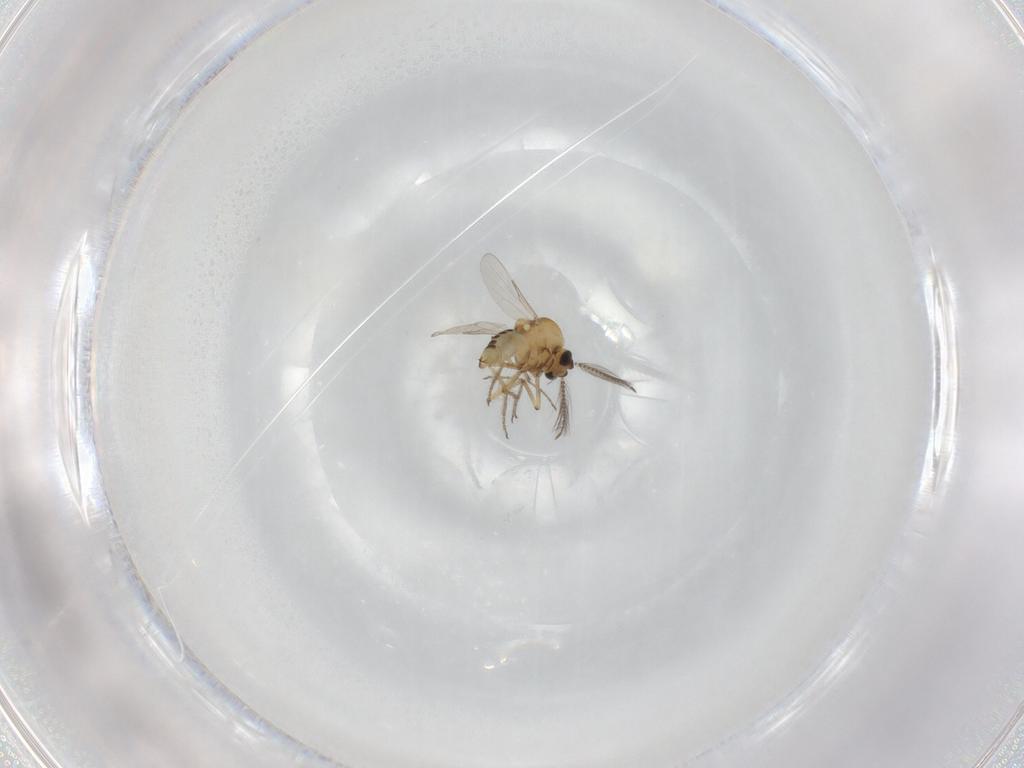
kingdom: Animalia
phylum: Arthropoda
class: Insecta
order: Diptera
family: Ceratopogonidae
